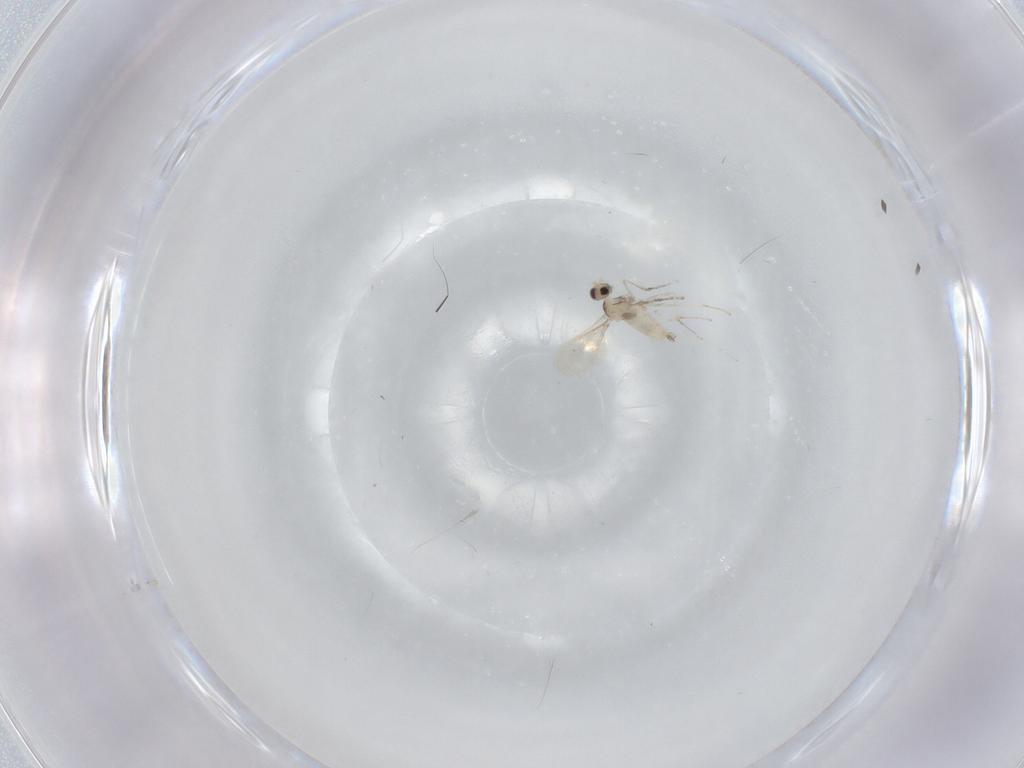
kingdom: Animalia
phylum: Arthropoda
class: Insecta
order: Diptera
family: Cecidomyiidae
